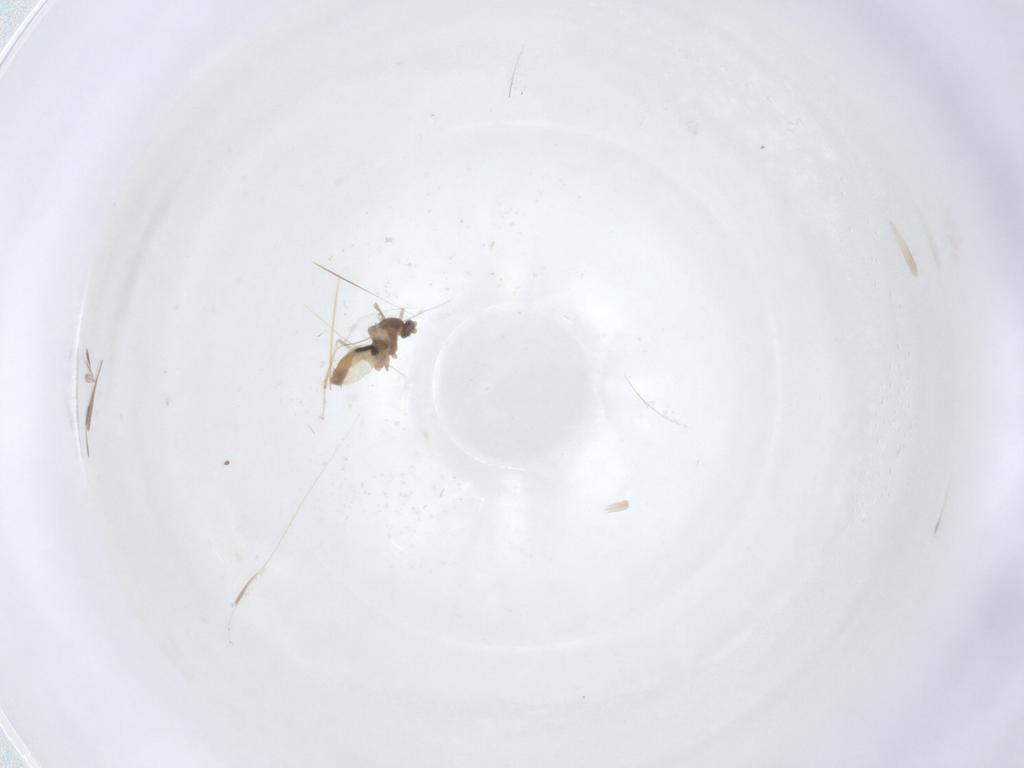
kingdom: Animalia
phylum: Arthropoda
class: Insecta
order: Diptera
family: Cecidomyiidae
